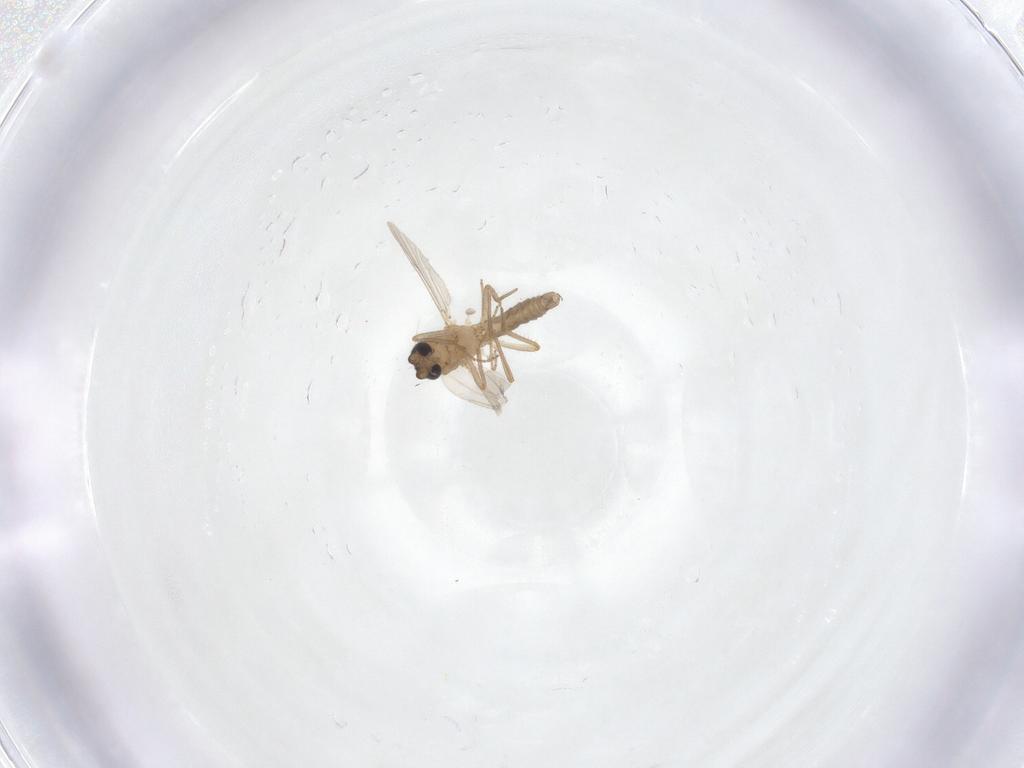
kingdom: Animalia
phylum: Arthropoda
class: Insecta
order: Diptera
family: Ceratopogonidae
